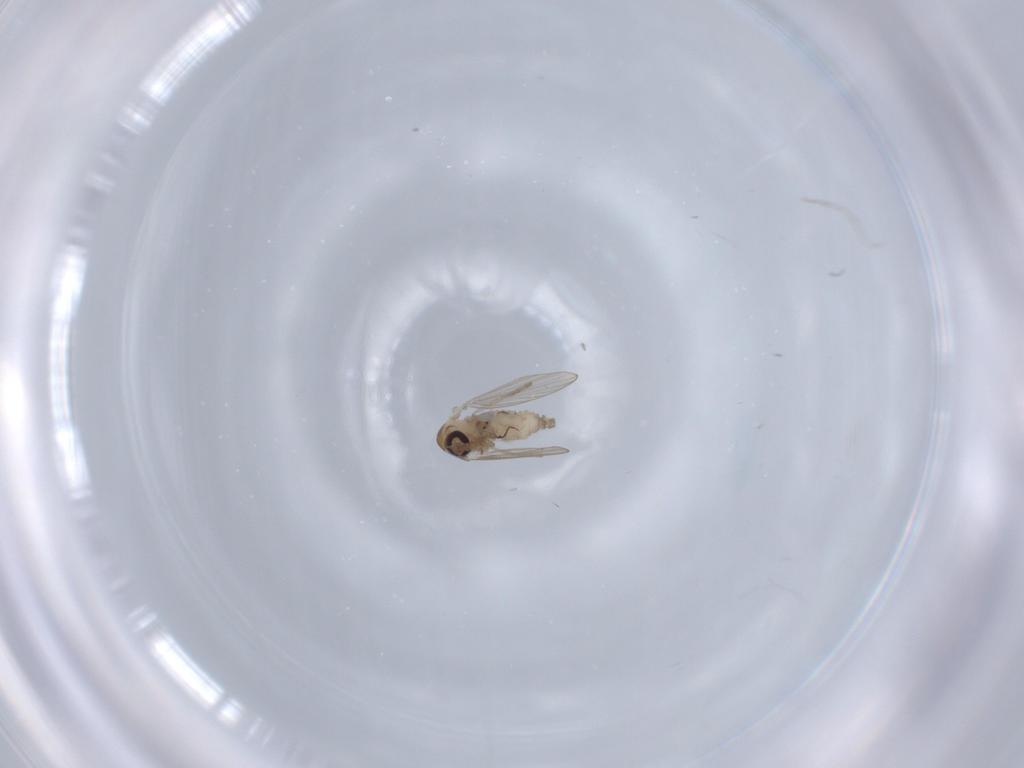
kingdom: Animalia
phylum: Arthropoda
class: Insecta
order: Diptera
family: Psychodidae
